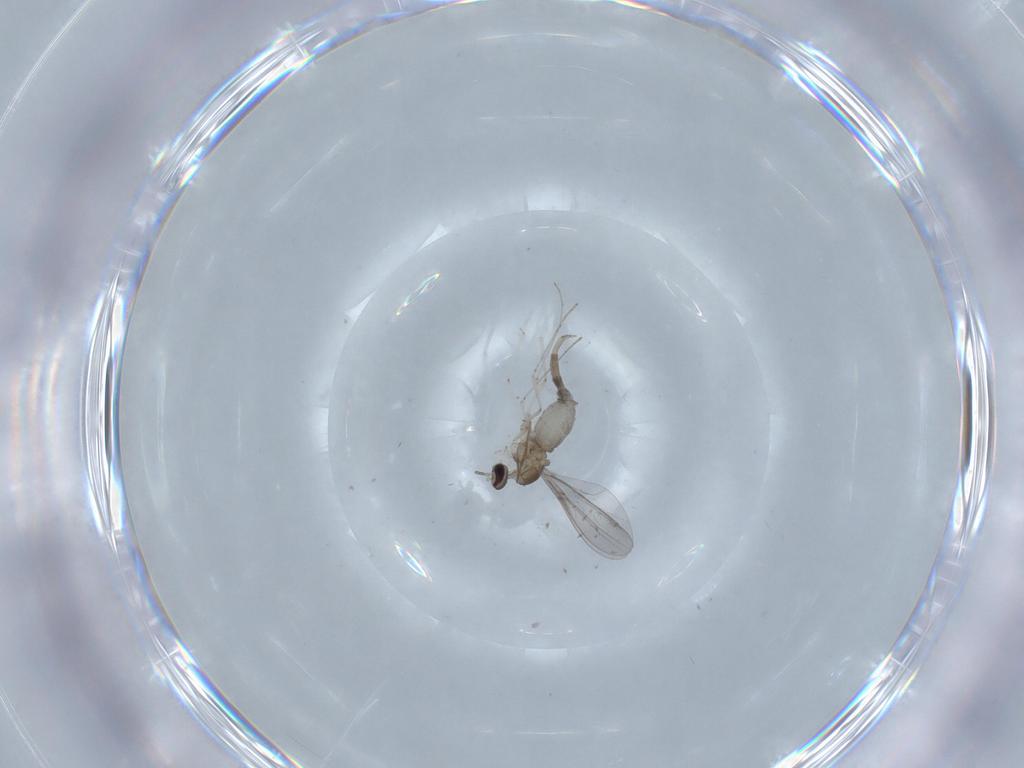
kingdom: Animalia
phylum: Arthropoda
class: Insecta
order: Diptera
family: Cecidomyiidae
